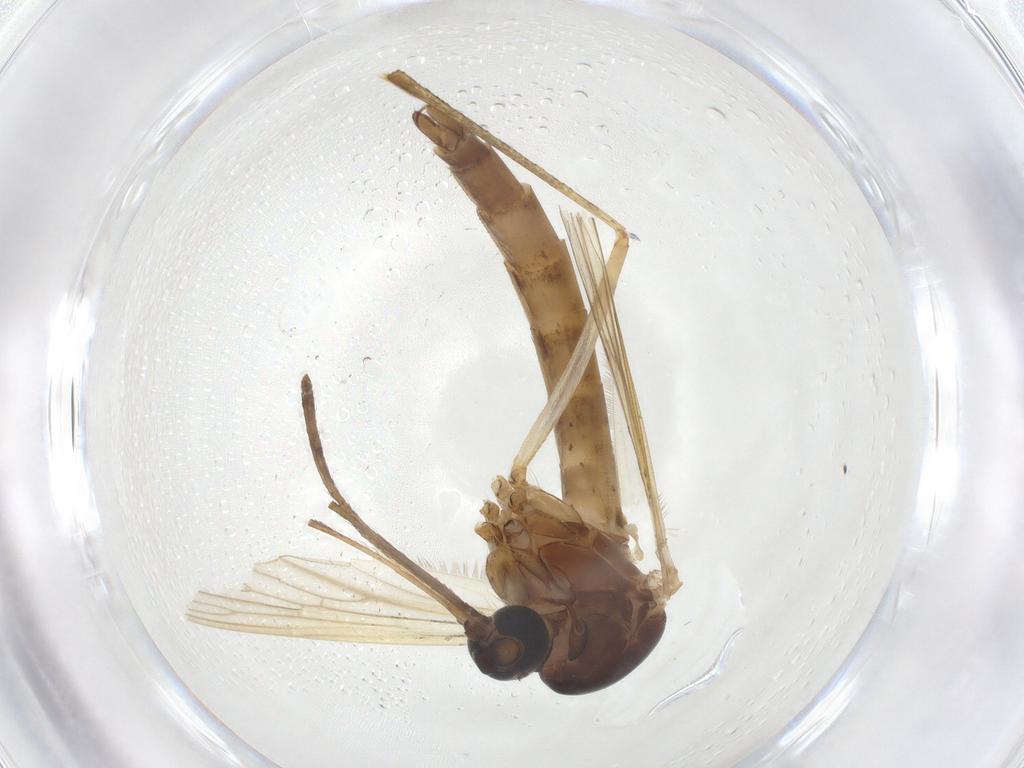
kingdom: Animalia
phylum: Arthropoda
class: Insecta
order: Diptera
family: Cecidomyiidae
